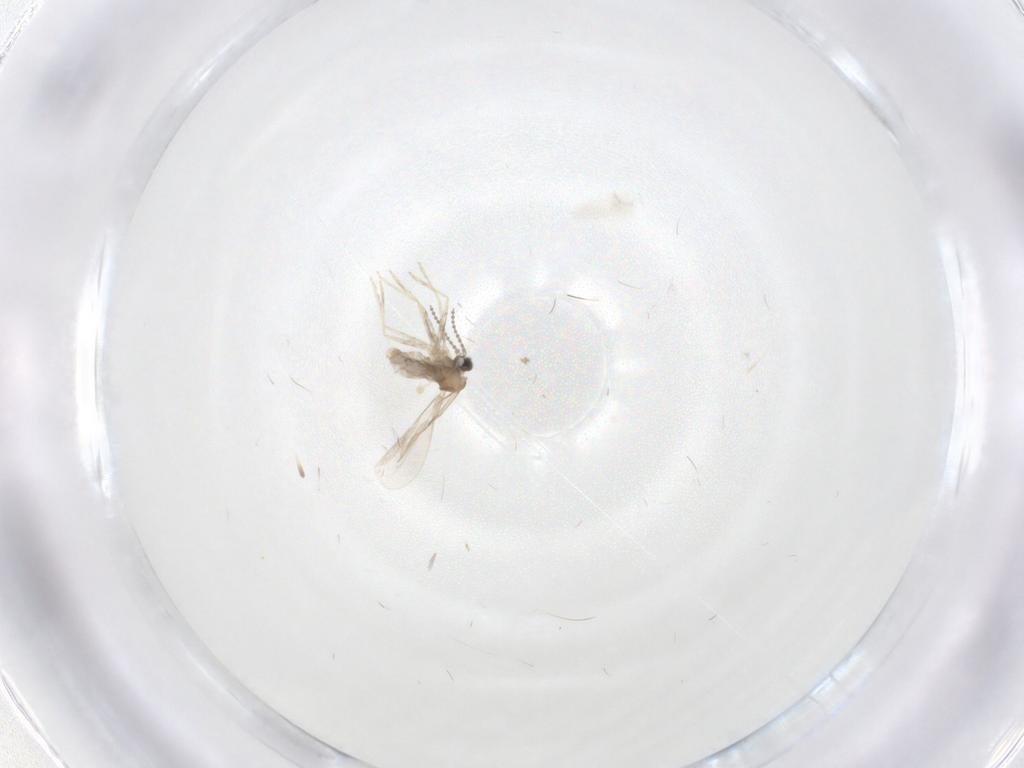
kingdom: Animalia
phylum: Arthropoda
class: Insecta
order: Diptera
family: Cecidomyiidae
